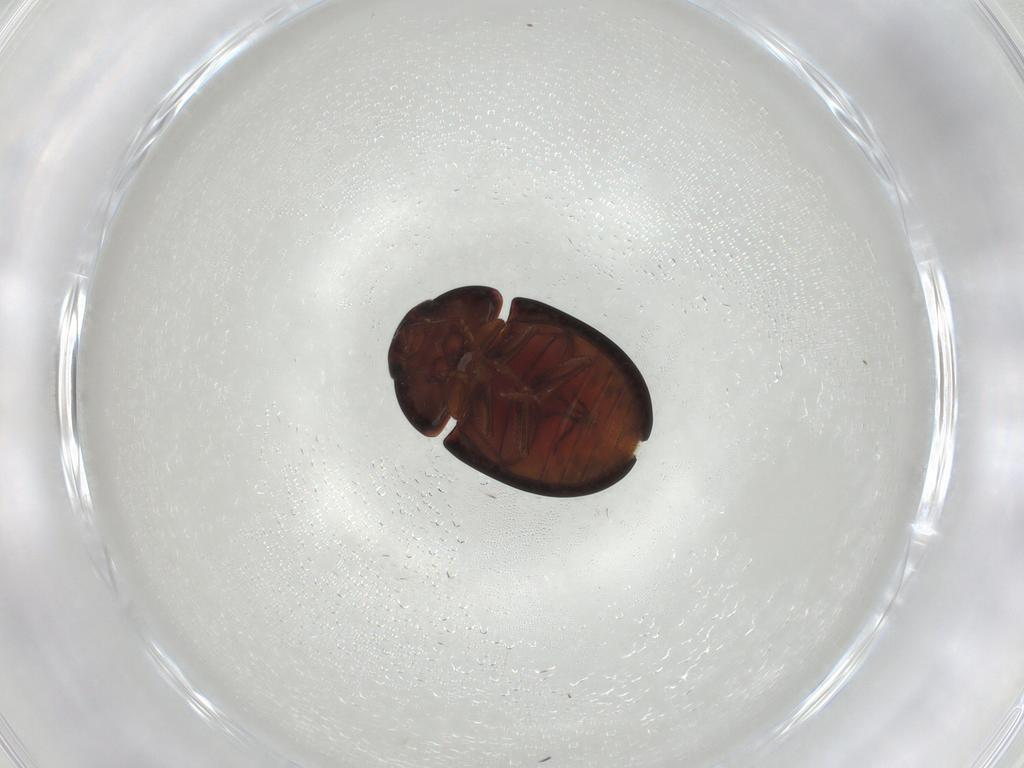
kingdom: Animalia
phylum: Arthropoda
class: Insecta
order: Coleoptera
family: Phalacridae
